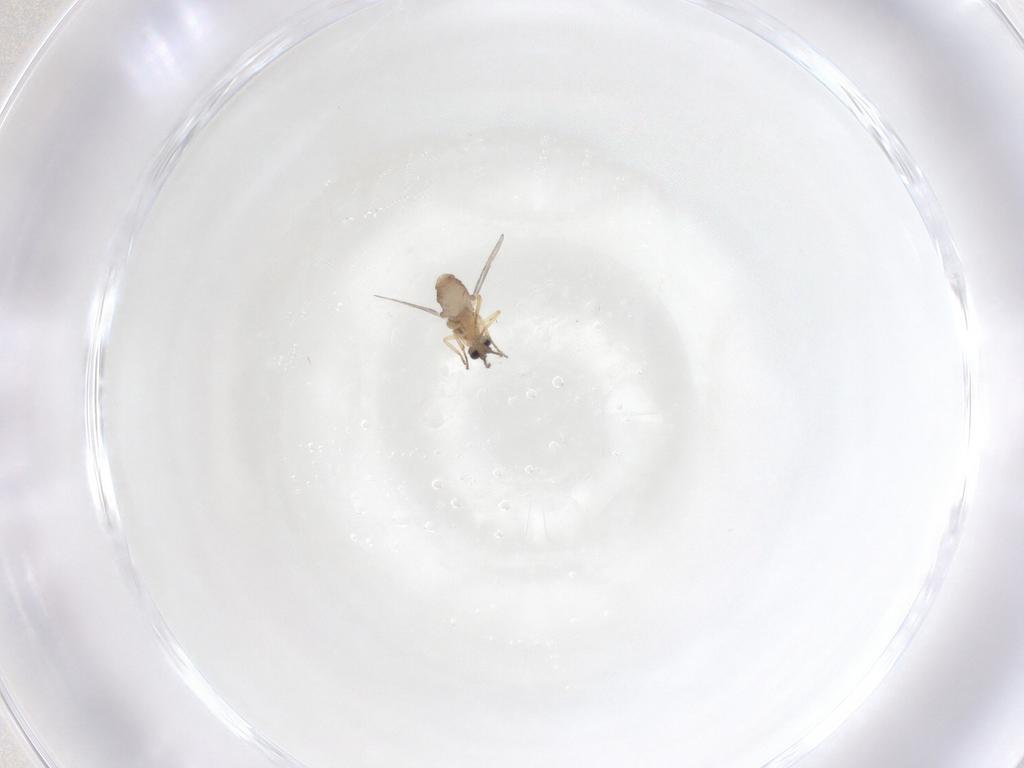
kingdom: Animalia
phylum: Arthropoda
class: Insecta
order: Diptera
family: Ceratopogonidae
